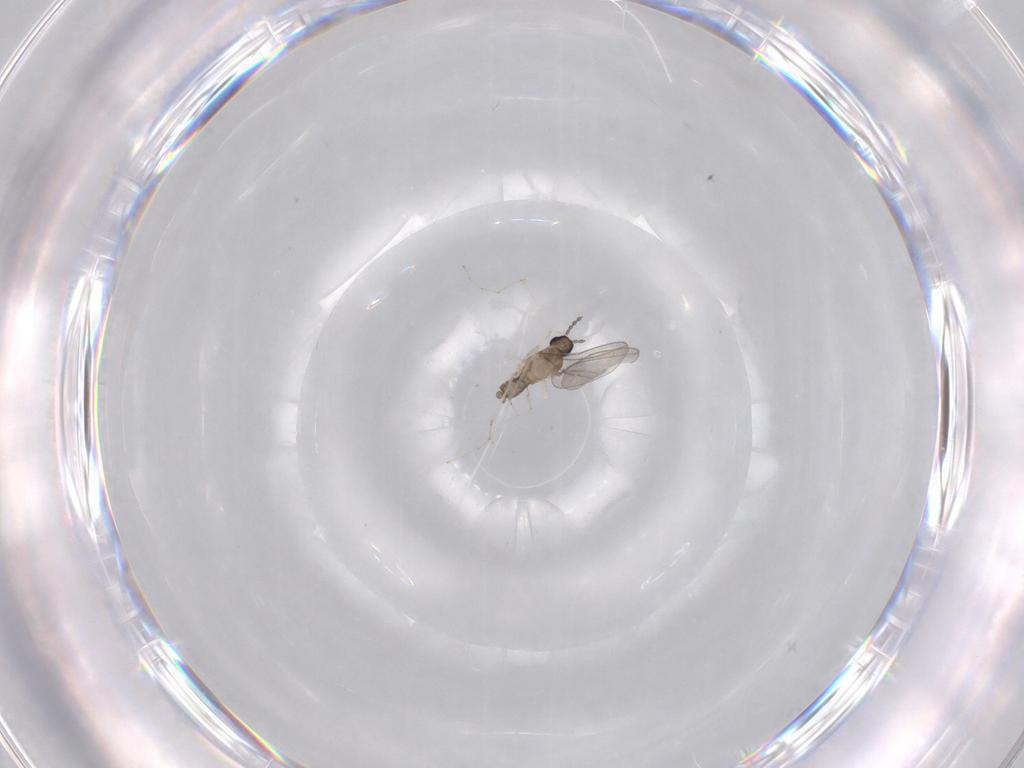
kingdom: Animalia
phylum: Arthropoda
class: Insecta
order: Diptera
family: Cecidomyiidae
